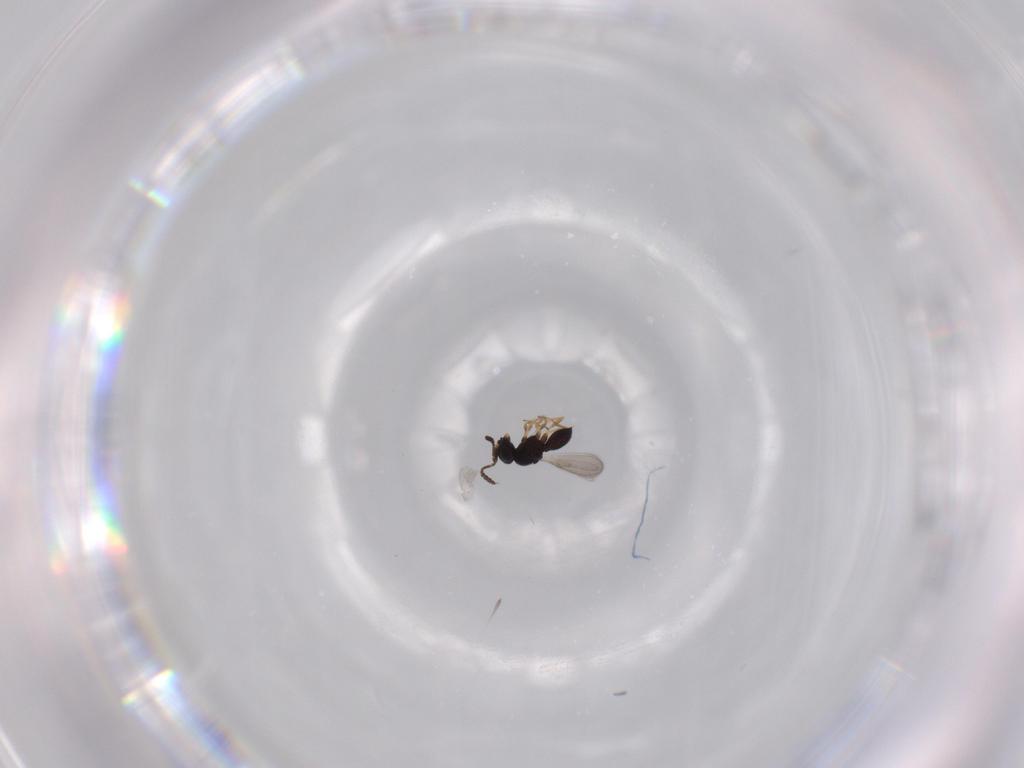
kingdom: Animalia
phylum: Arthropoda
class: Insecta
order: Hymenoptera
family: Scelionidae
